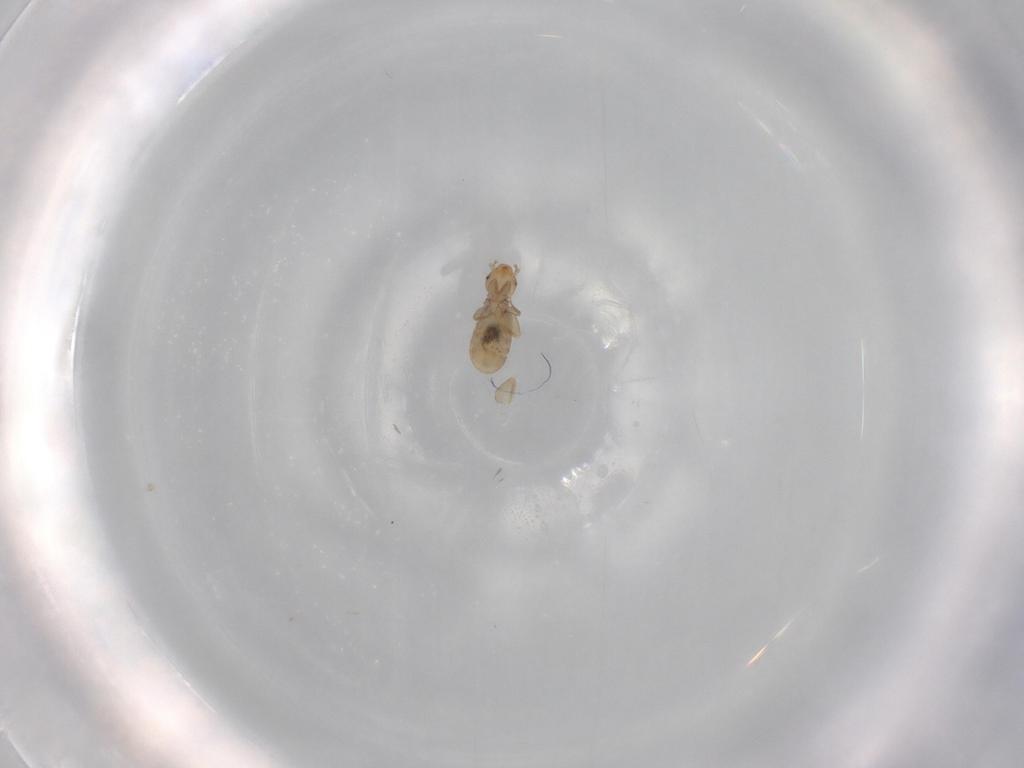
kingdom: Animalia
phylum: Arthropoda
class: Insecta
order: Psocodea
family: Liposcelididae
